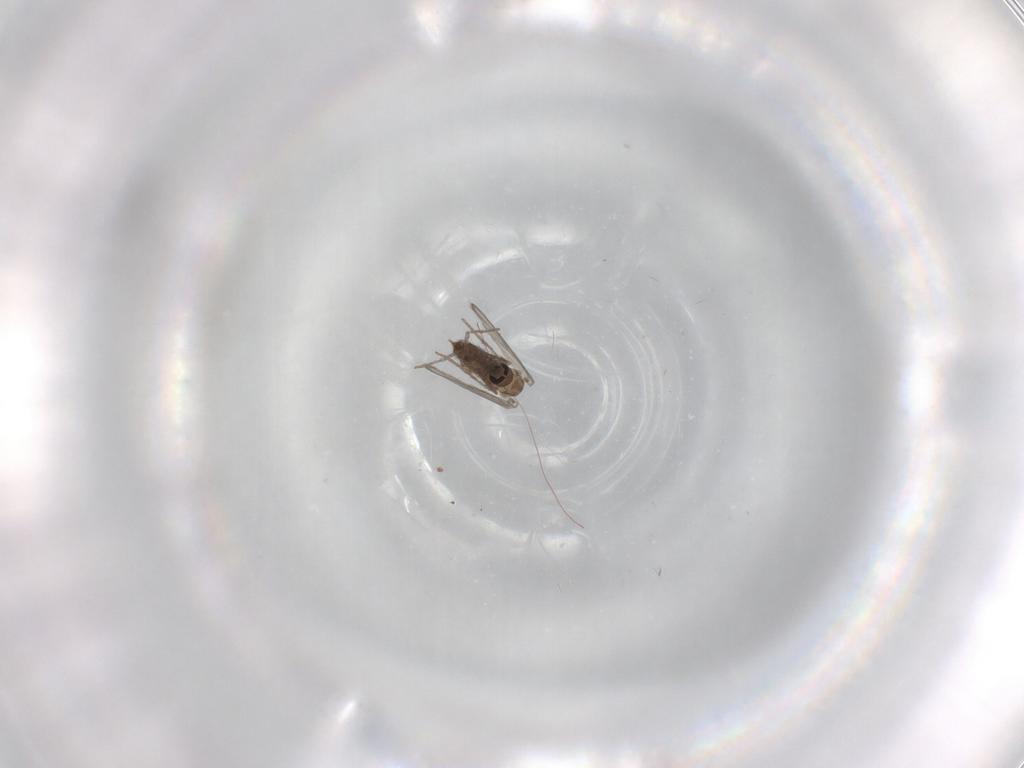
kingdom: Animalia
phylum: Arthropoda
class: Insecta
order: Diptera
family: Psychodidae
